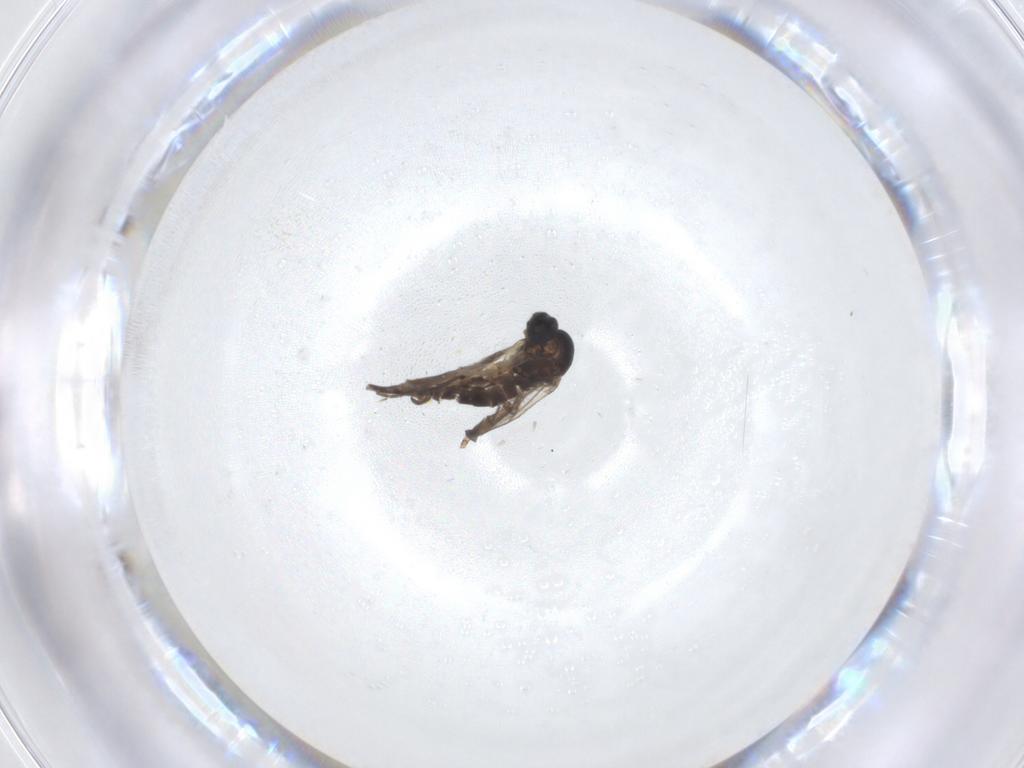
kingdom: Animalia
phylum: Arthropoda
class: Insecta
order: Diptera
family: Sciaridae
